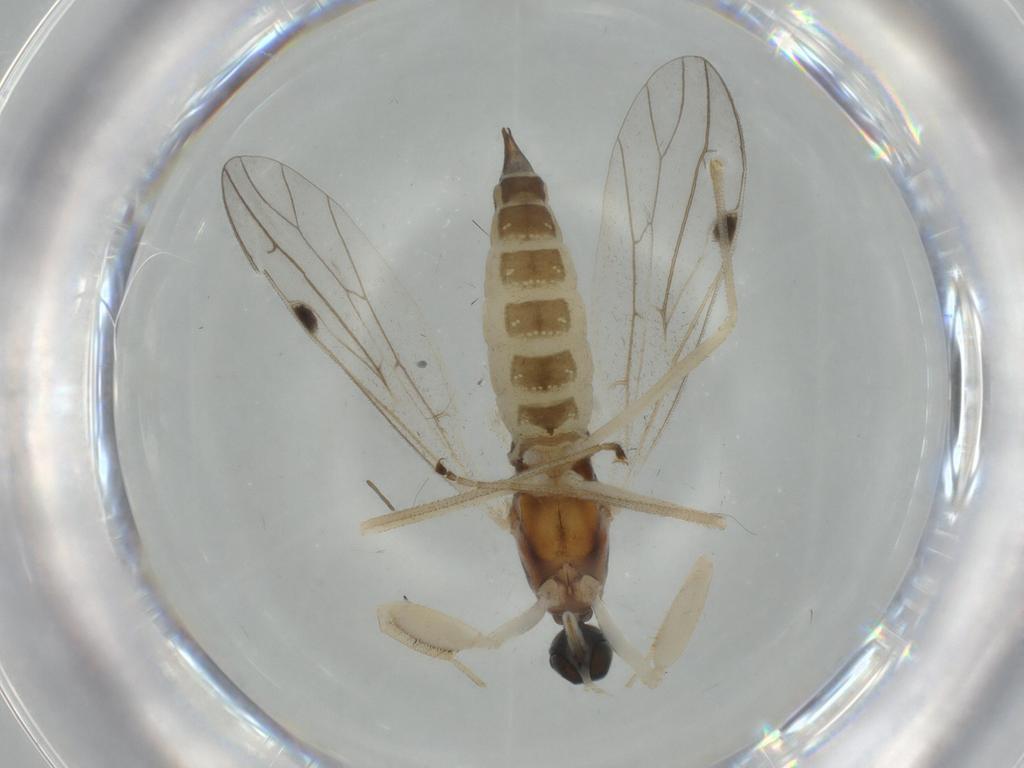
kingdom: Animalia
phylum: Arthropoda
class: Insecta
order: Diptera
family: Empididae
